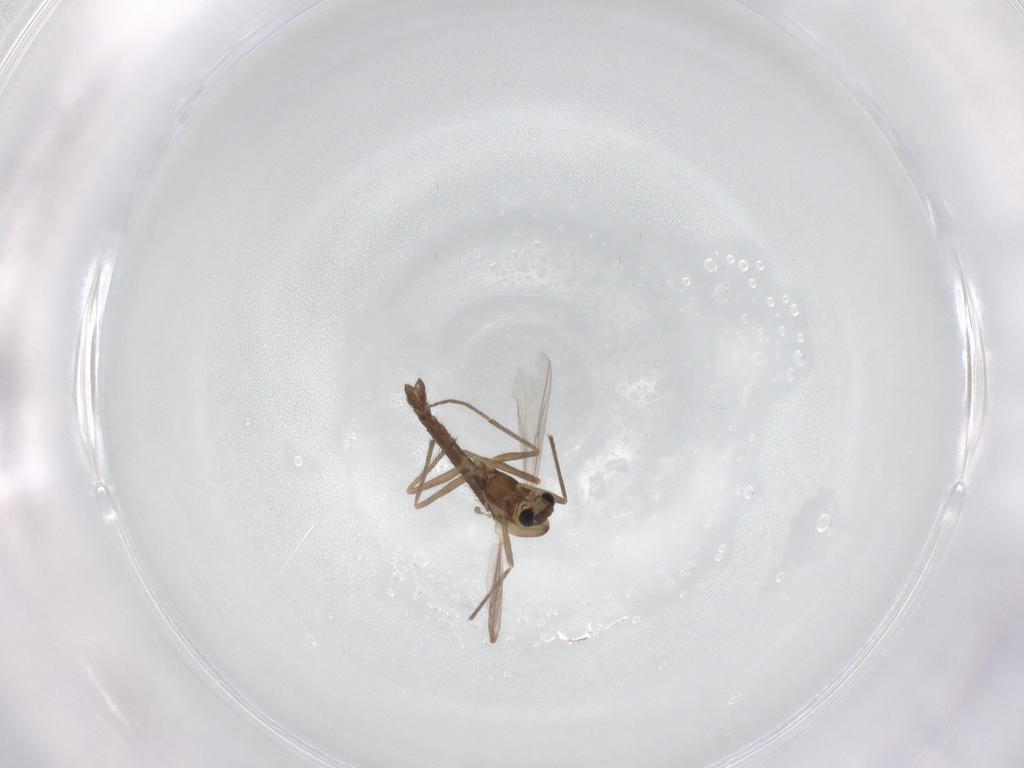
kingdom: Animalia
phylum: Arthropoda
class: Insecta
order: Diptera
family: Chironomidae
